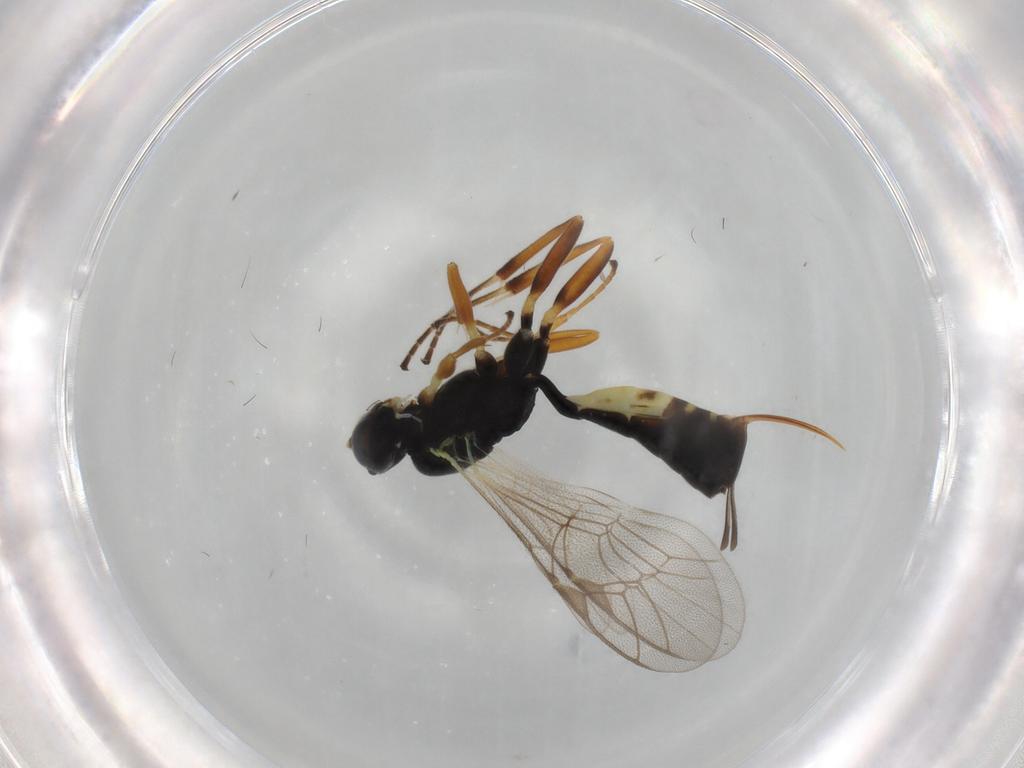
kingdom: Animalia
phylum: Arthropoda
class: Insecta
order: Hymenoptera
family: Ichneumonidae
